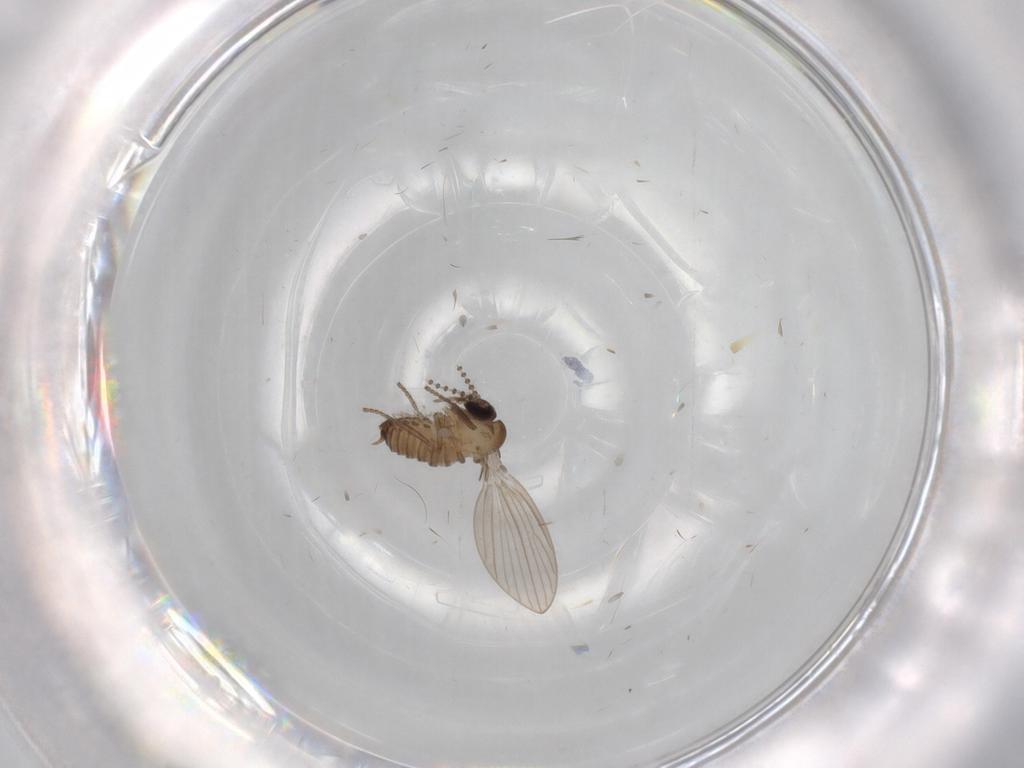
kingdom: Animalia
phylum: Arthropoda
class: Insecta
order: Diptera
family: Psychodidae
